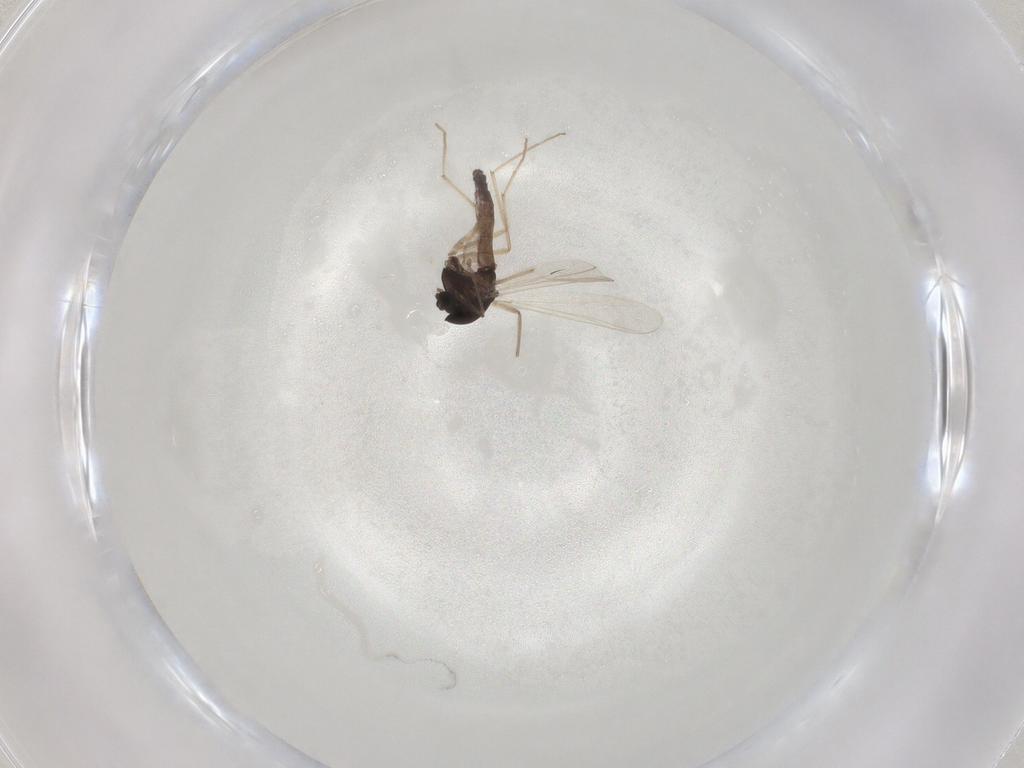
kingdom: Animalia
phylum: Arthropoda
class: Insecta
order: Diptera
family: Chironomidae
